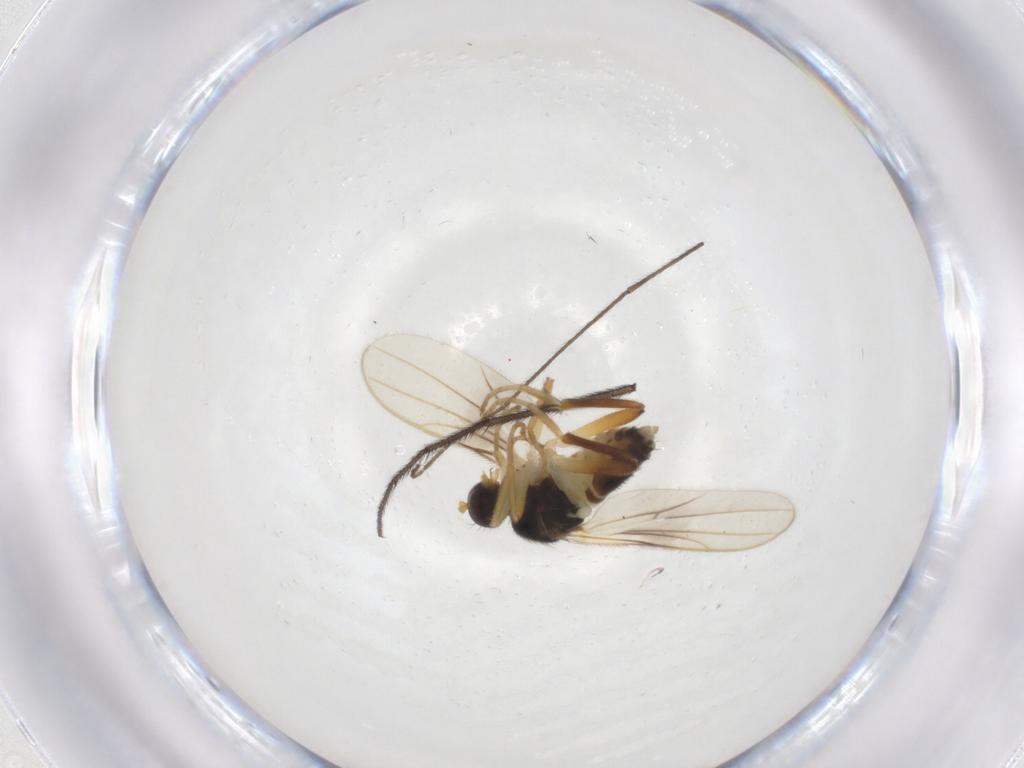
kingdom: Animalia
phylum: Arthropoda
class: Insecta
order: Diptera
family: Hybotidae
